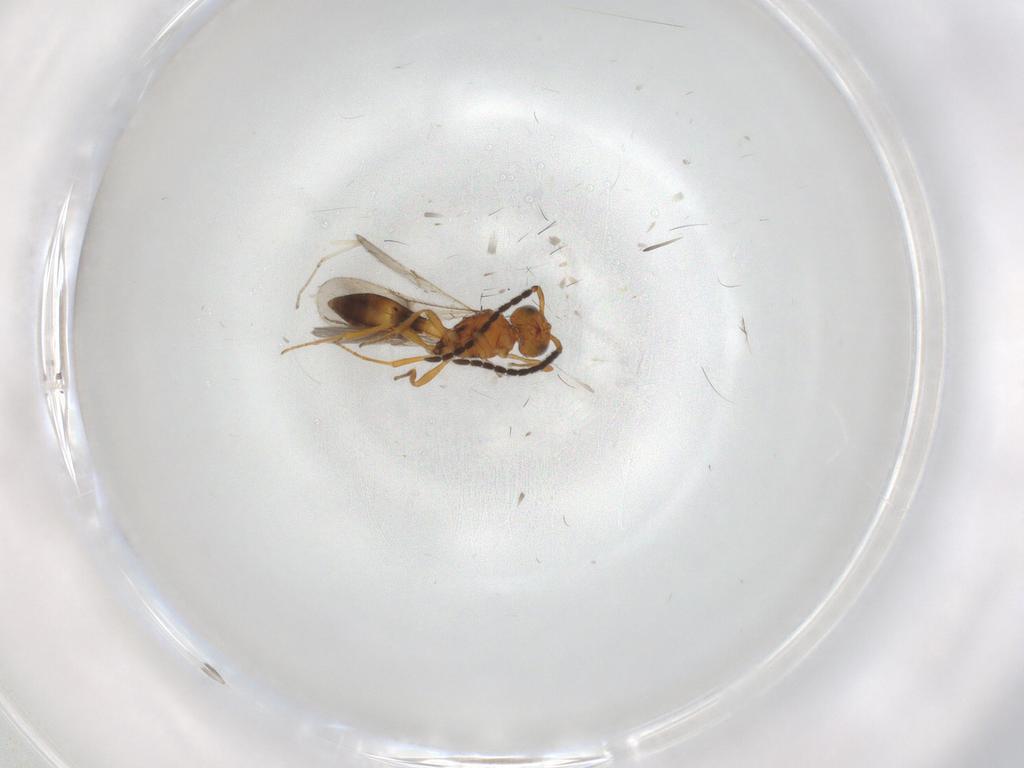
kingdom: Animalia
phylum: Arthropoda
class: Insecta
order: Hymenoptera
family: Scelionidae
